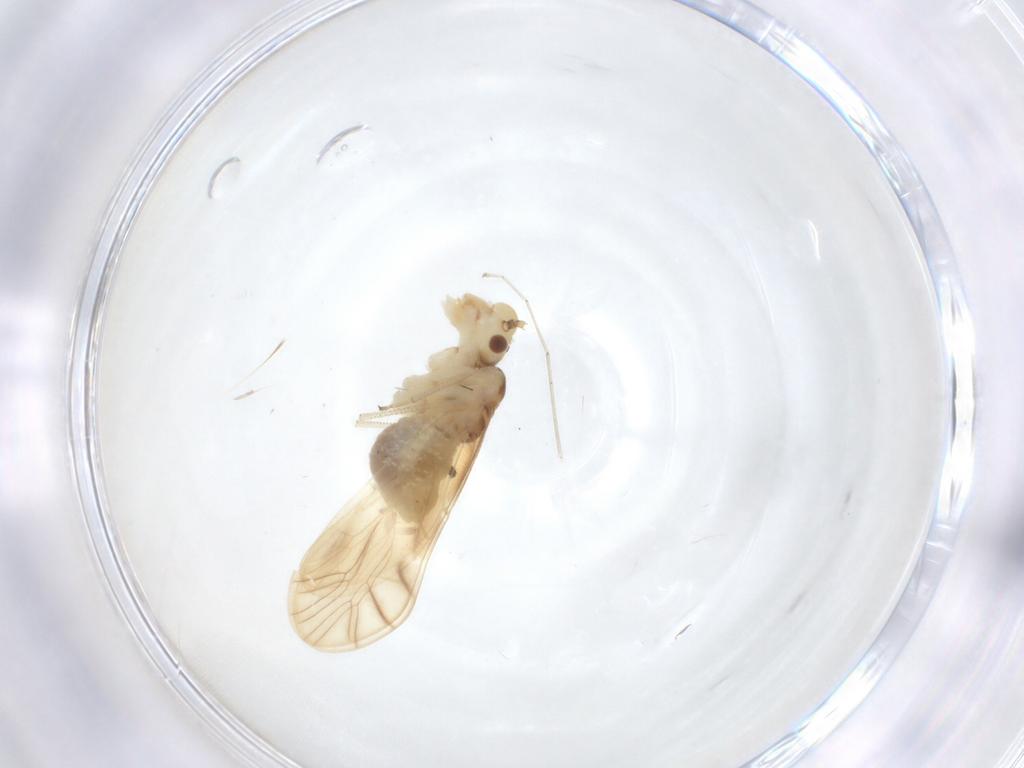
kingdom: Animalia
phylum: Arthropoda
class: Insecta
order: Psocodea
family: Caeciliusidae
